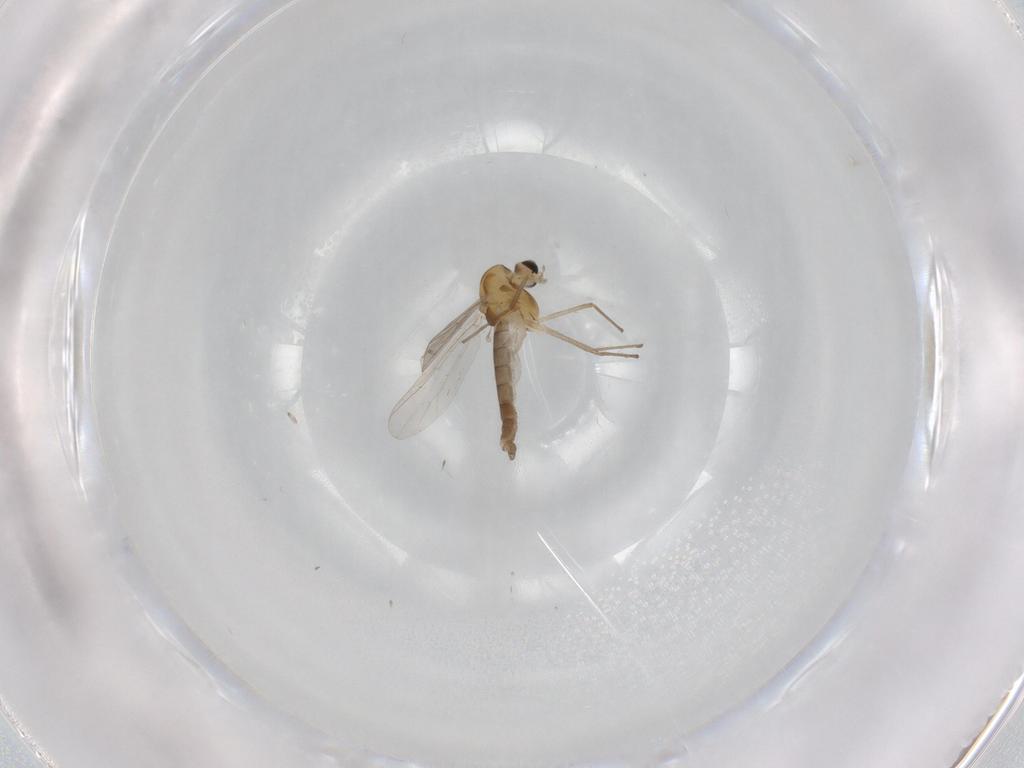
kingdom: Animalia
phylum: Arthropoda
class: Insecta
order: Diptera
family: Chironomidae
